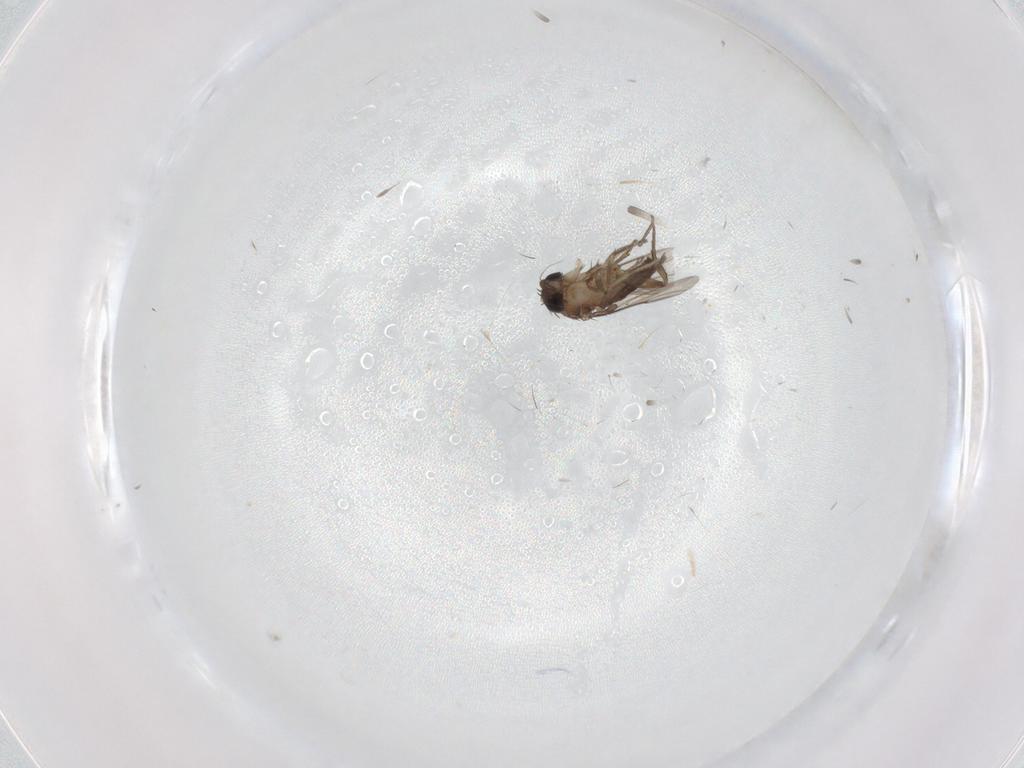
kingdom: Animalia
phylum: Arthropoda
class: Insecta
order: Diptera
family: Phoridae
